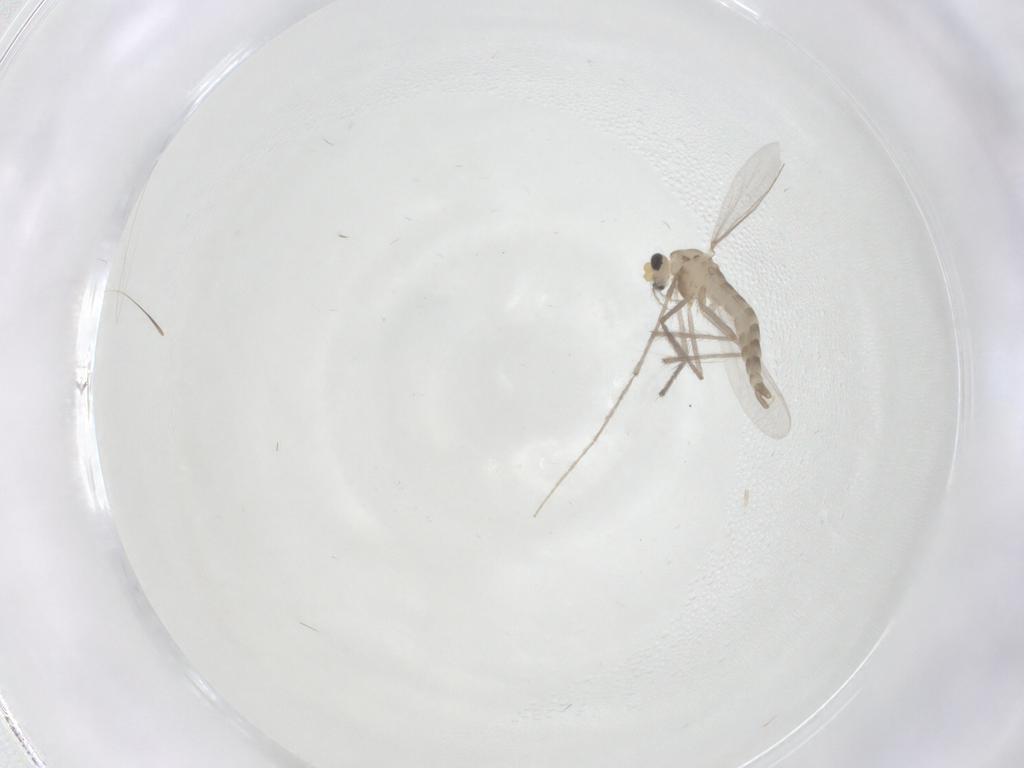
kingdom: Animalia
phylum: Arthropoda
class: Insecta
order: Diptera
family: Chironomidae
